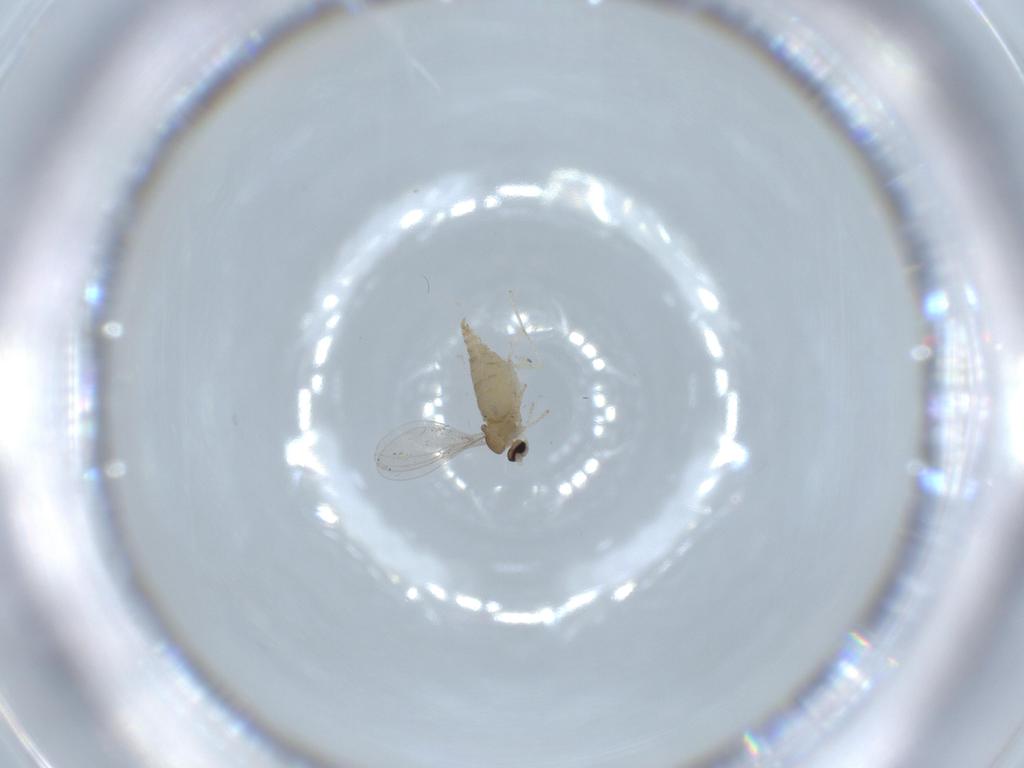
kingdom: Animalia
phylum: Arthropoda
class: Insecta
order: Diptera
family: Cecidomyiidae
